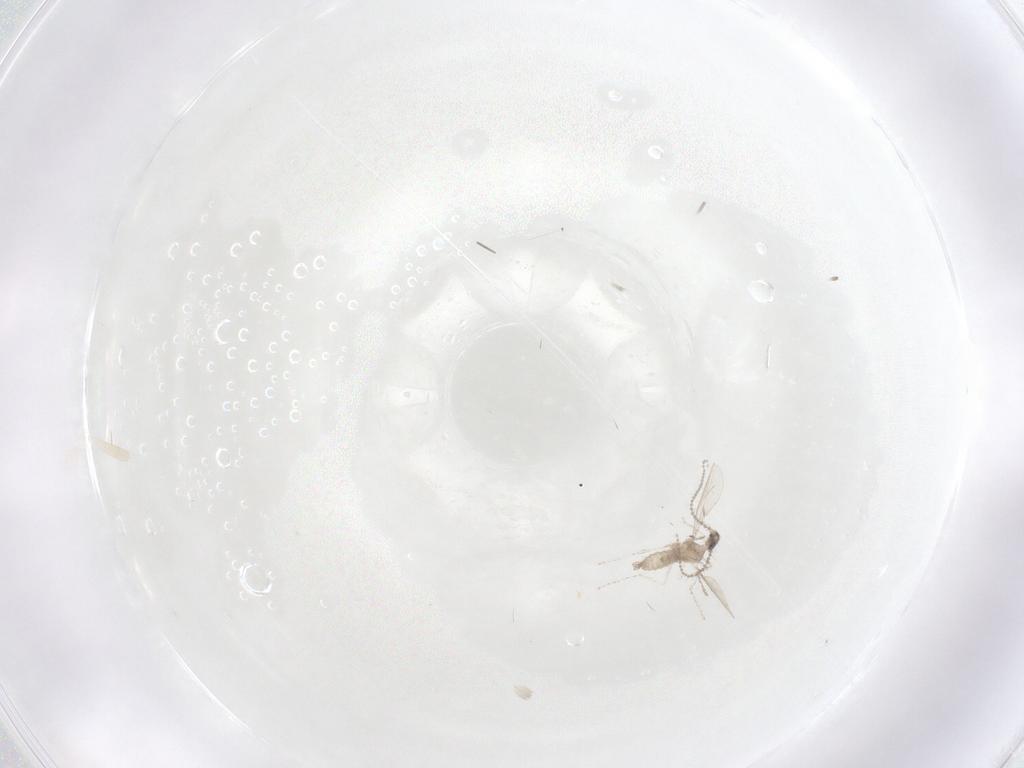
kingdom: Animalia
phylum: Arthropoda
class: Insecta
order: Diptera
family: Cecidomyiidae
